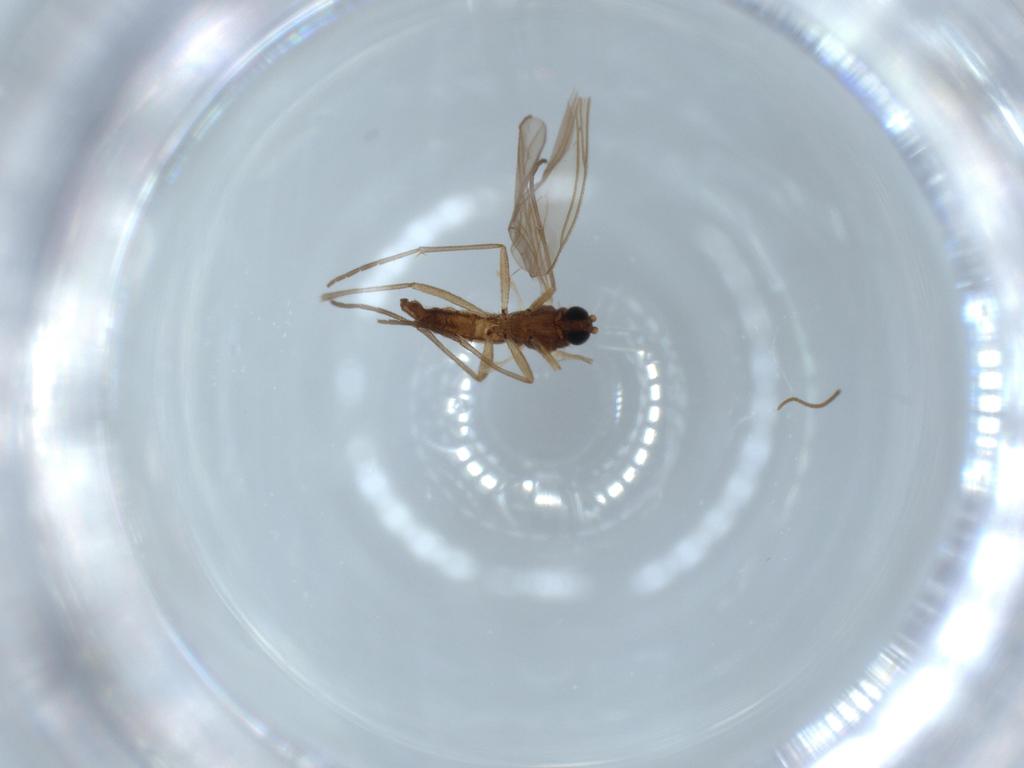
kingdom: Animalia
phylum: Arthropoda
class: Insecta
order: Diptera
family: Sciaridae
